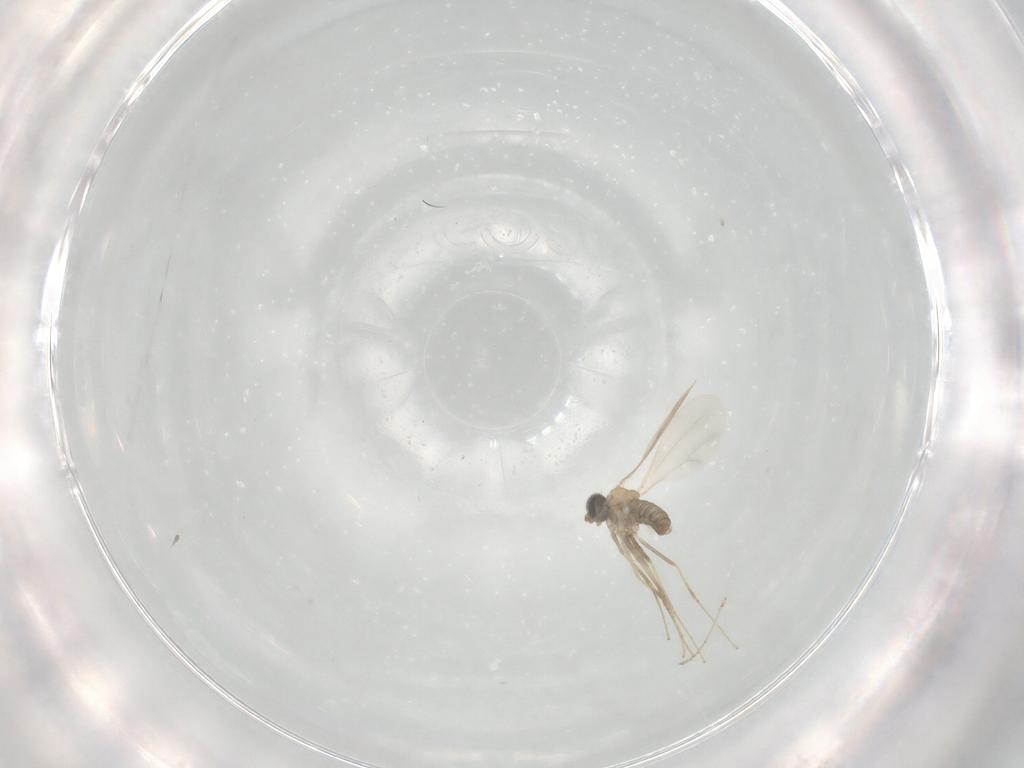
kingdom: Animalia
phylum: Arthropoda
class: Insecta
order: Diptera
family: Cecidomyiidae
